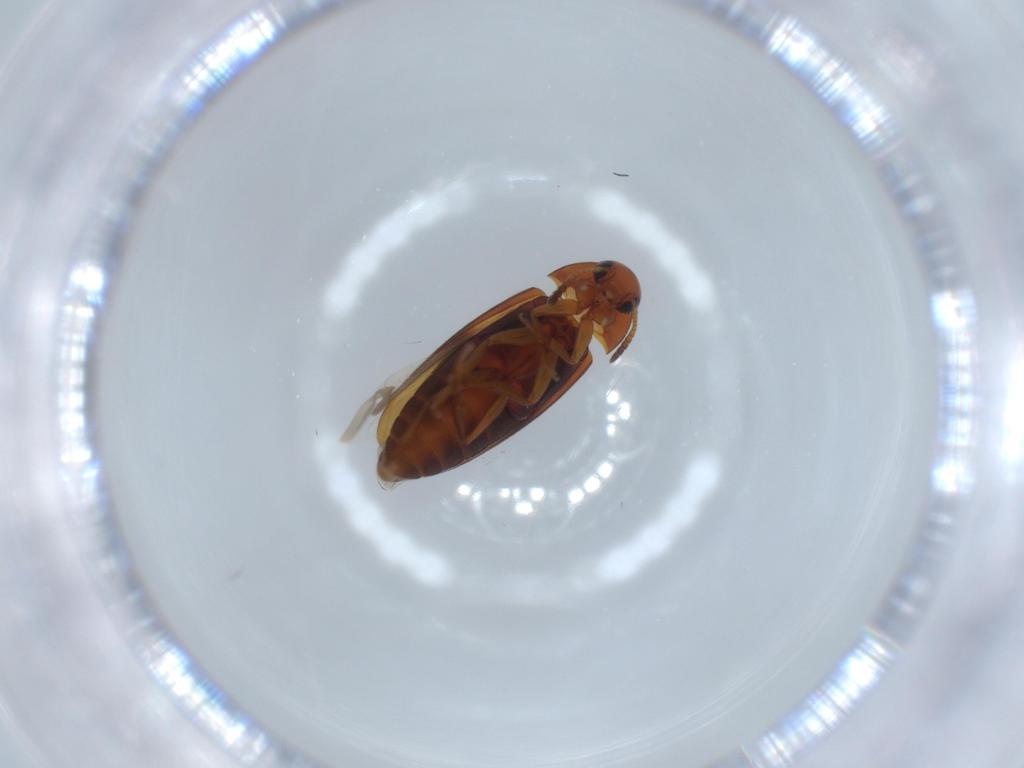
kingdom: Animalia
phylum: Arthropoda
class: Insecta
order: Coleoptera
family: Scraptiidae
